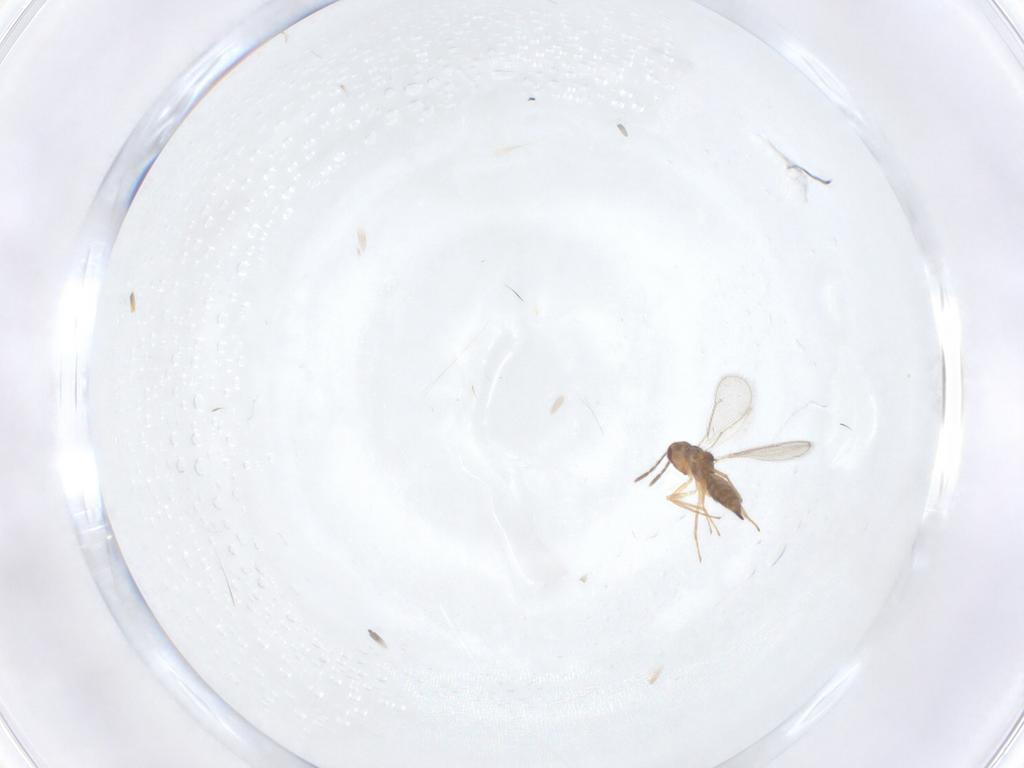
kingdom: Animalia
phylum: Arthropoda
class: Insecta
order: Hymenoptera
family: Eulophidae
